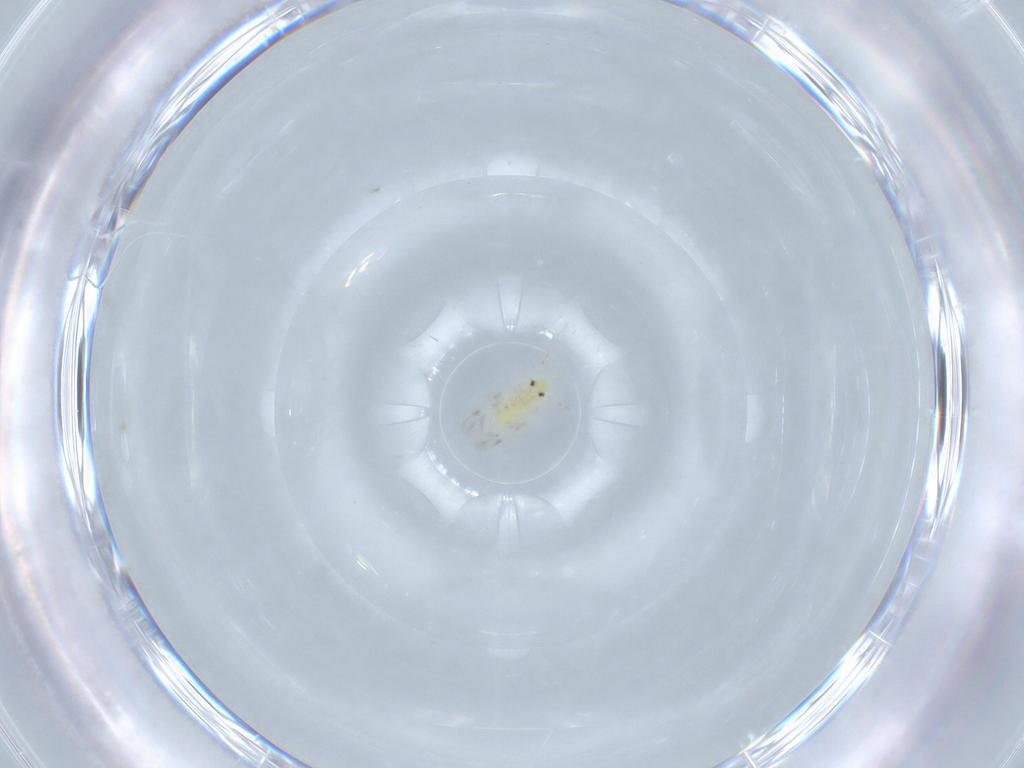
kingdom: Animalia
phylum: Arthropoda
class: Insecta
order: Hemiptera
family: Aleyrodidae
